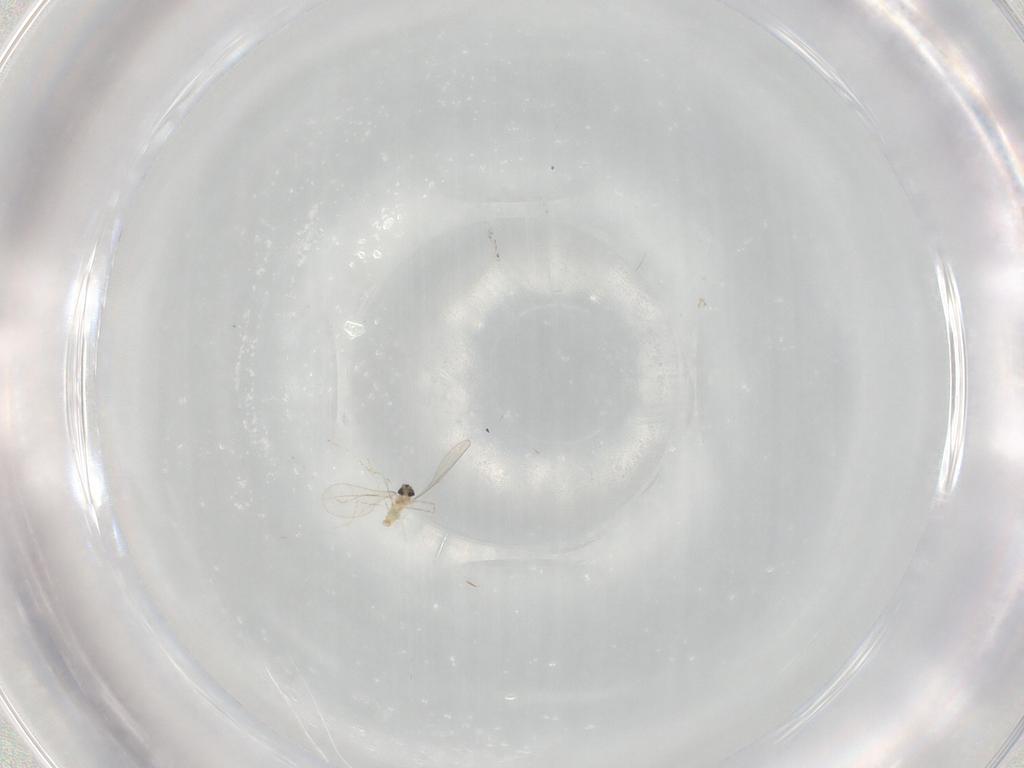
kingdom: Animalia
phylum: Arthropoda
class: Insecta
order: Diptera
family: Cecidomyiidae
